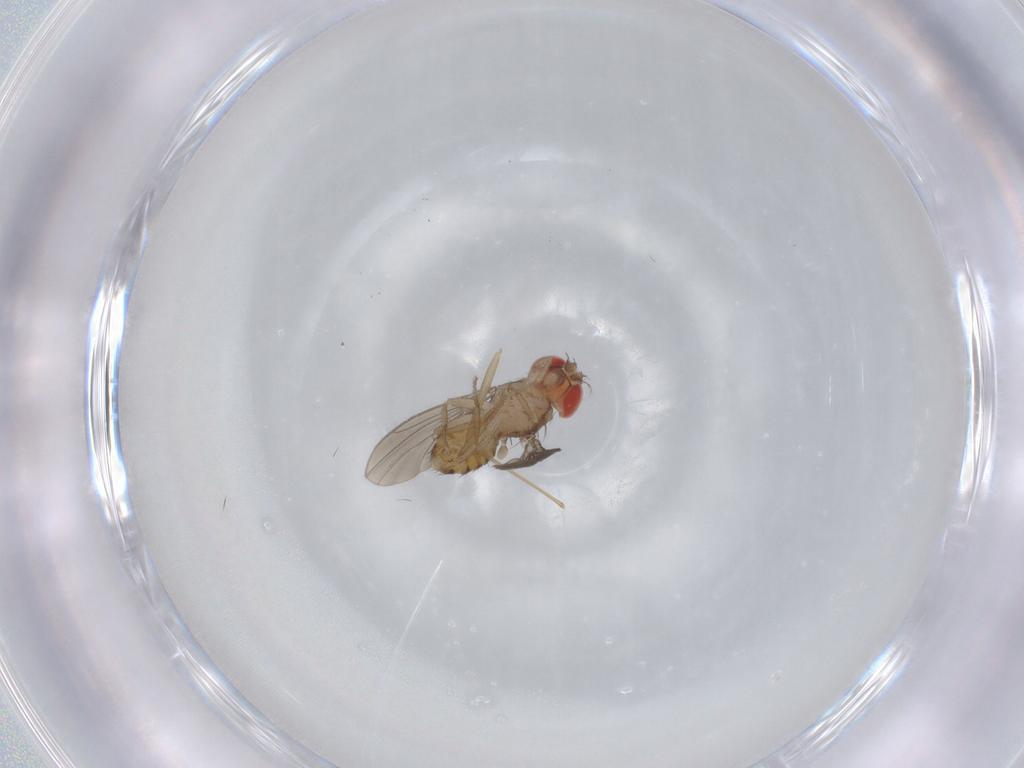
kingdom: Animalia
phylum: Arthropoda
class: Insecta
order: Diptera
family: Drosophilidae
